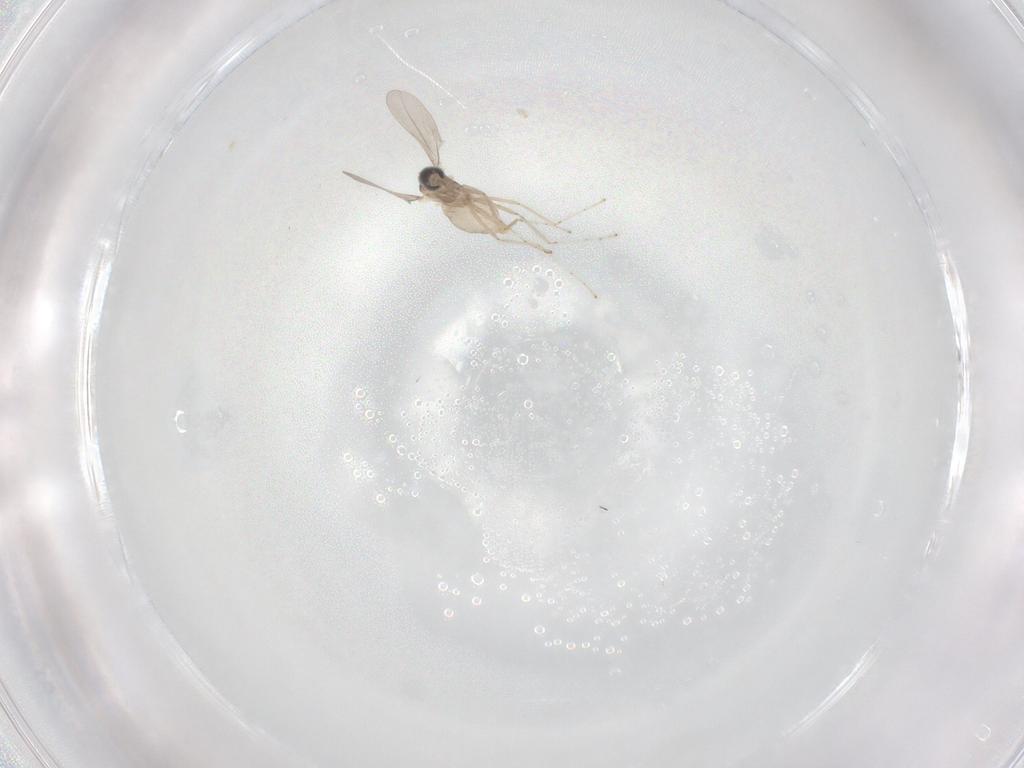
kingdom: Animalia
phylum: Arthropoda
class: Insecta
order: Diptera
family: Cecidomyiidae
